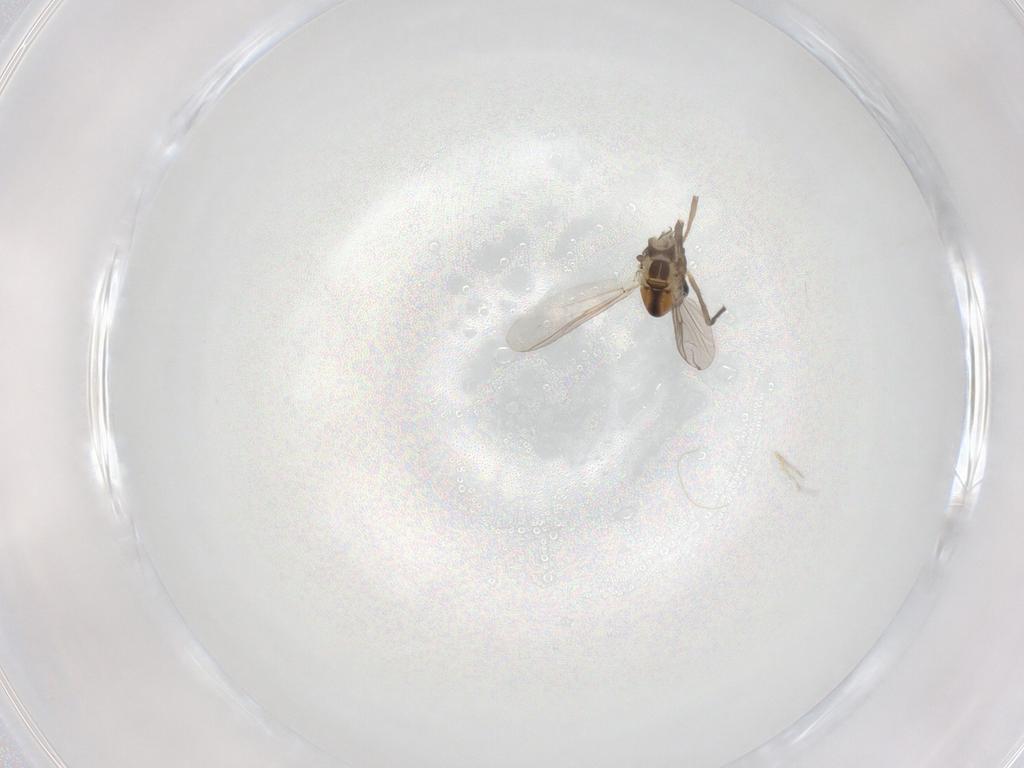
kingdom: Animalia
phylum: Arthropoda
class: Insecta
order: Diptera
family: Chironomidae
